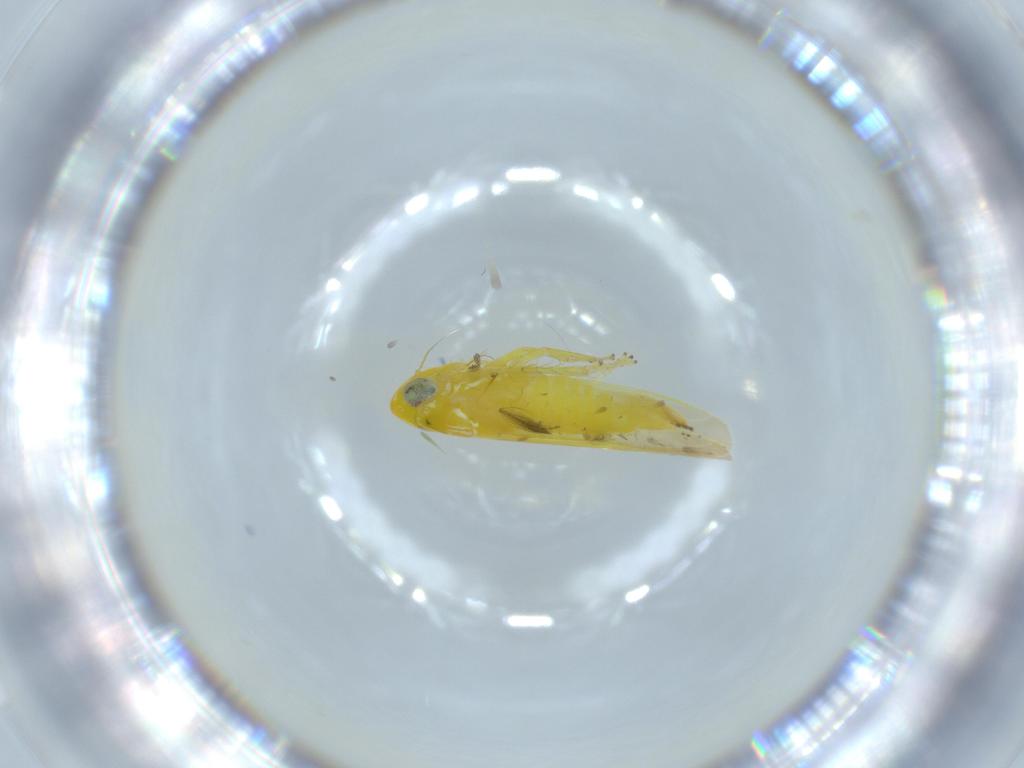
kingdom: Animalia
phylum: Arthropoda
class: Insecta
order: Hemiptera
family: Cicadellidae
